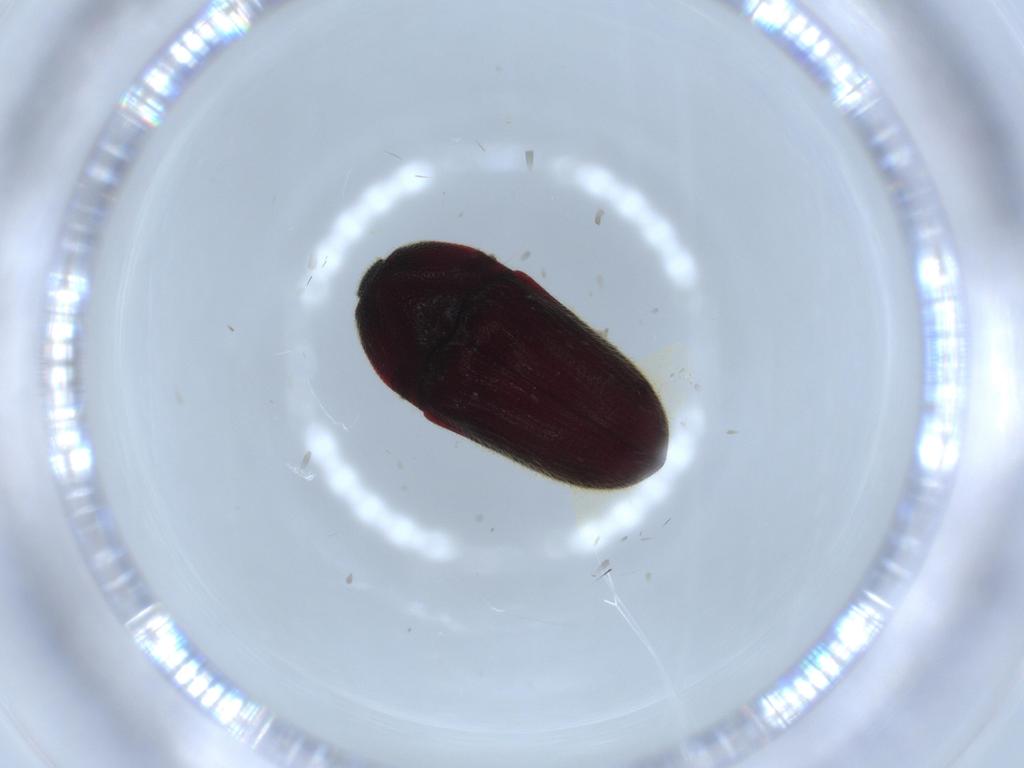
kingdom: Animalia
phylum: Arthropoda
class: Insecta
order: Coleoptera
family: Throscidae
